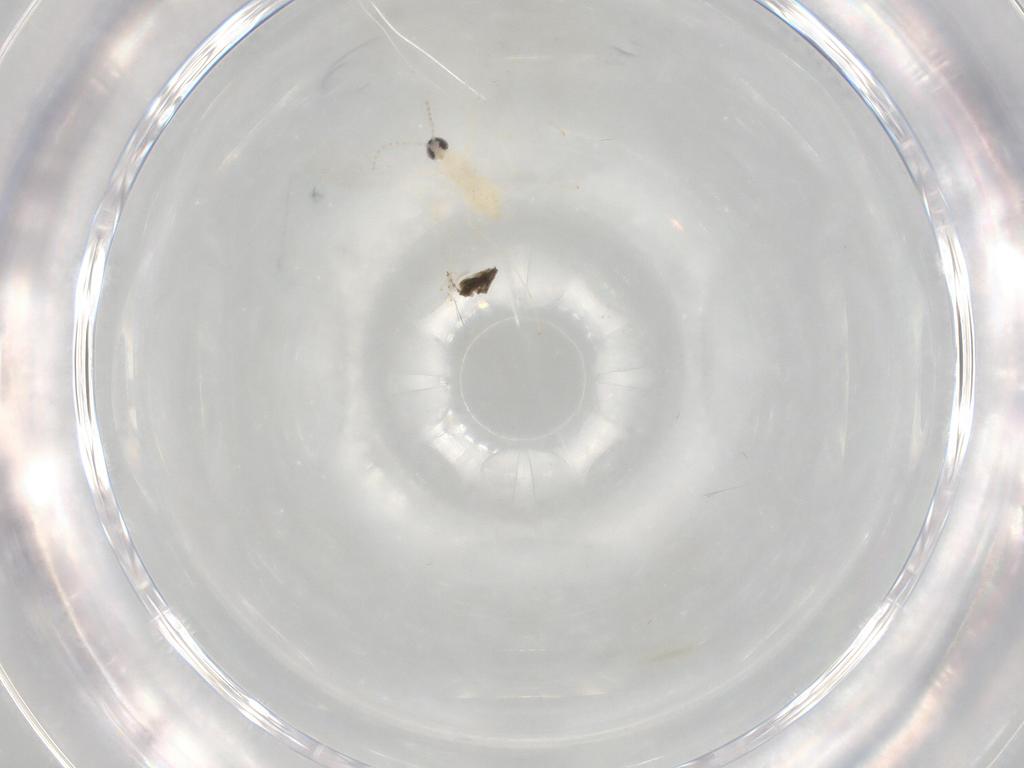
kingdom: Animalia
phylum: Arthropoda
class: Insecta
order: Diptera
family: Cecidomyiidae
